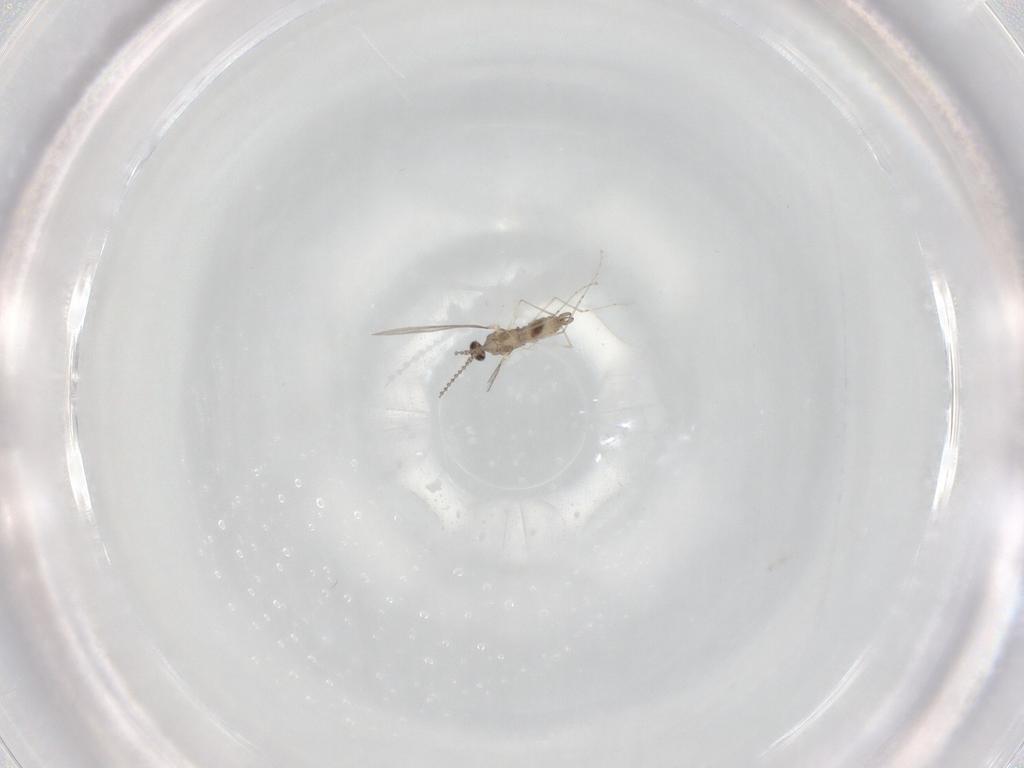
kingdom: Animalia
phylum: Arthropoda
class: Insecta
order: Diptera
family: Cecidomyiidae
